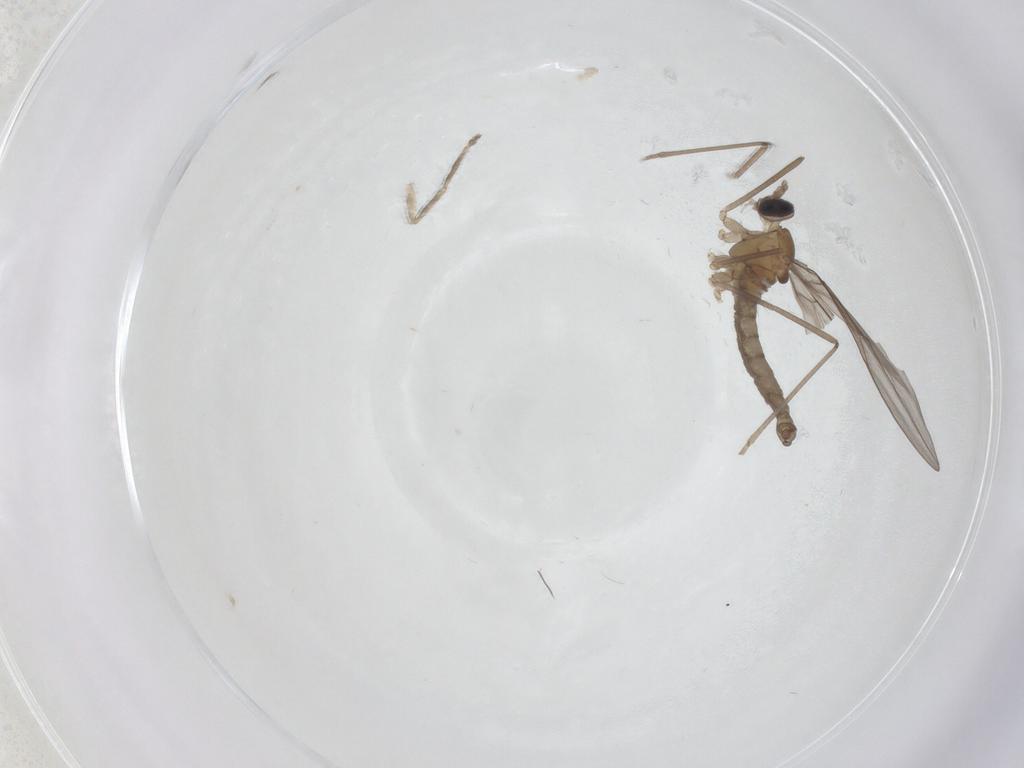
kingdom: Animalia
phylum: Arthropoda
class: Insecta
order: Diptera
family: Cecidomyiidae
